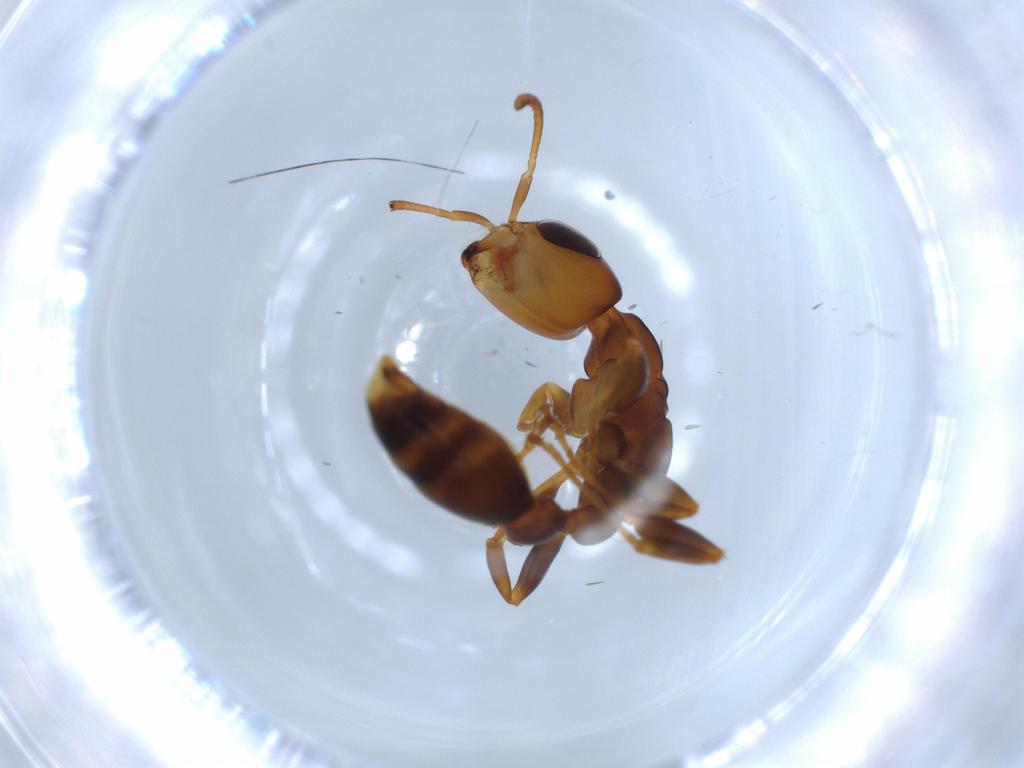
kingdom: Animalia
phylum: Arthropoda
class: Insecta
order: Hymenoptera
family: Formicidae
